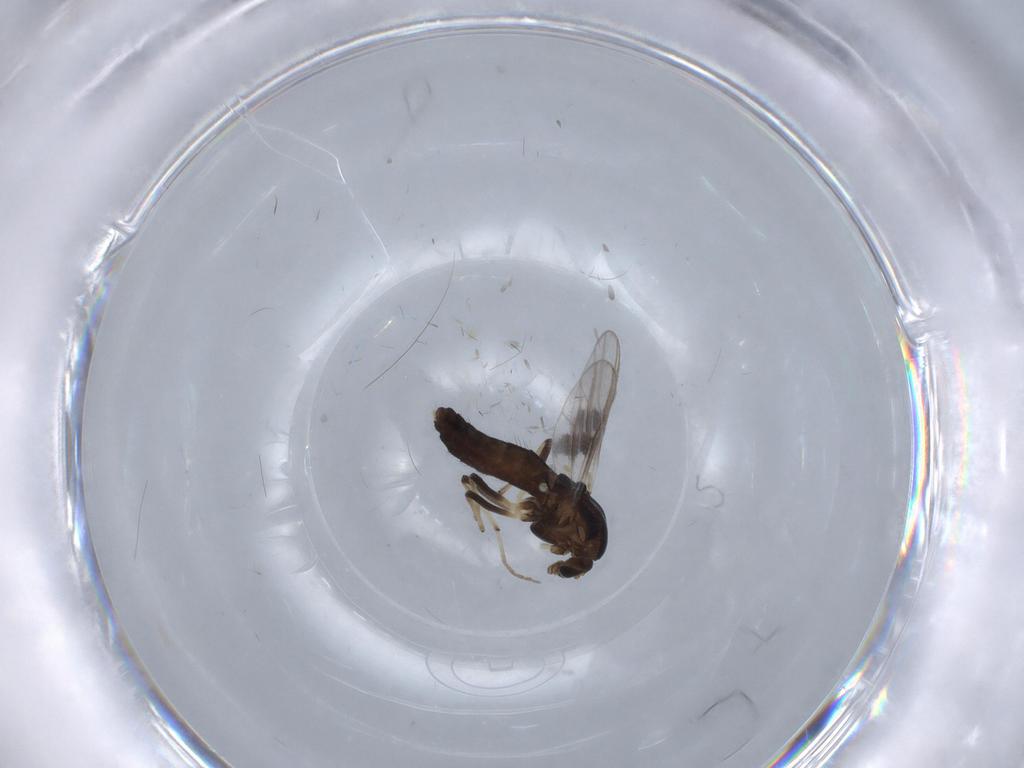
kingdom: Animalia
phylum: Arthropoda
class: Insecta
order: Diptera
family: Chironomidae
